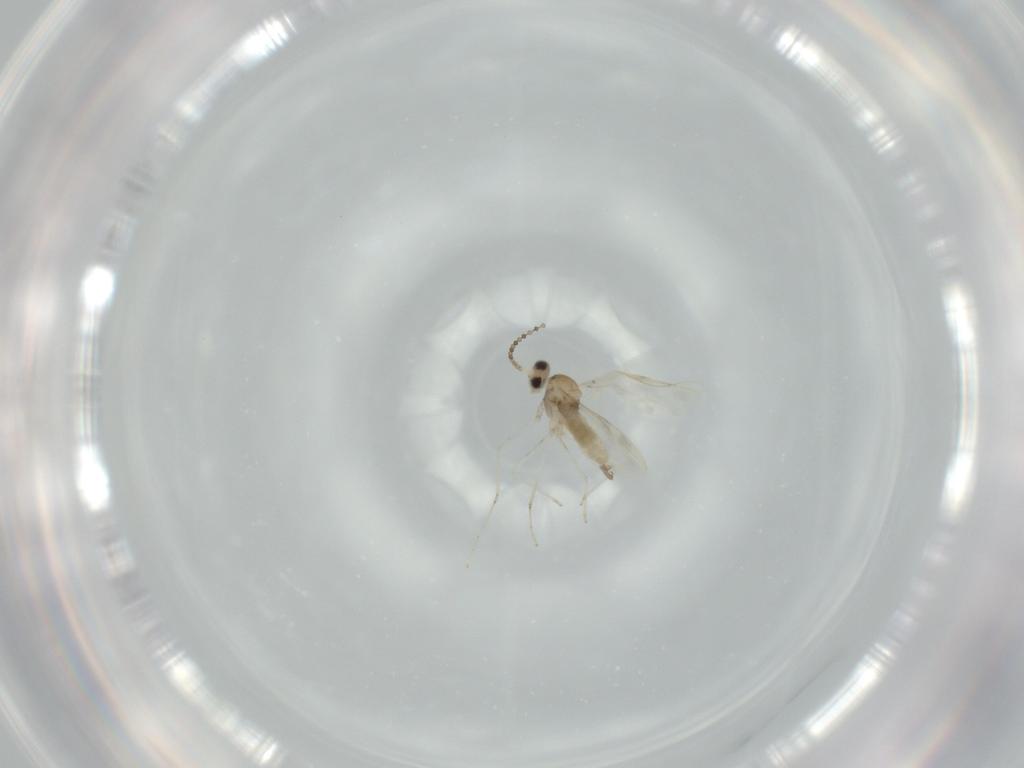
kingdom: Animalia
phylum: Arthropoda
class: Insecta
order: Diptera
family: Cecidomyiidae
